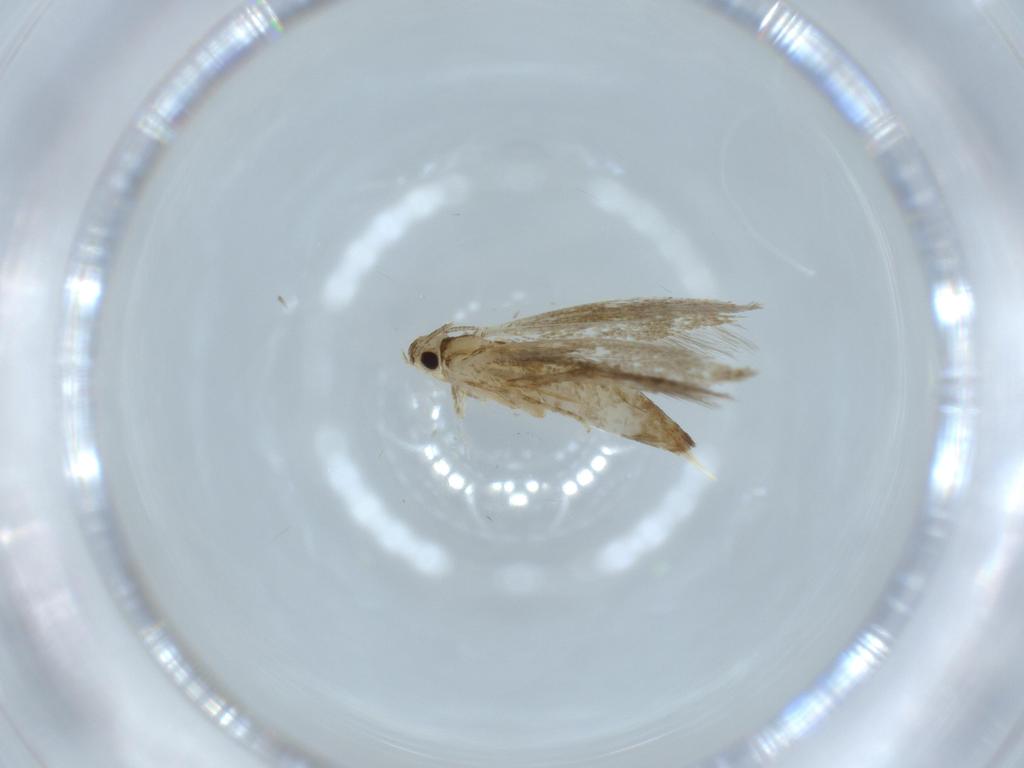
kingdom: Animalia
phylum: Arthropoda
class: Insecta
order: Lepidoptera
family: Tineidae
